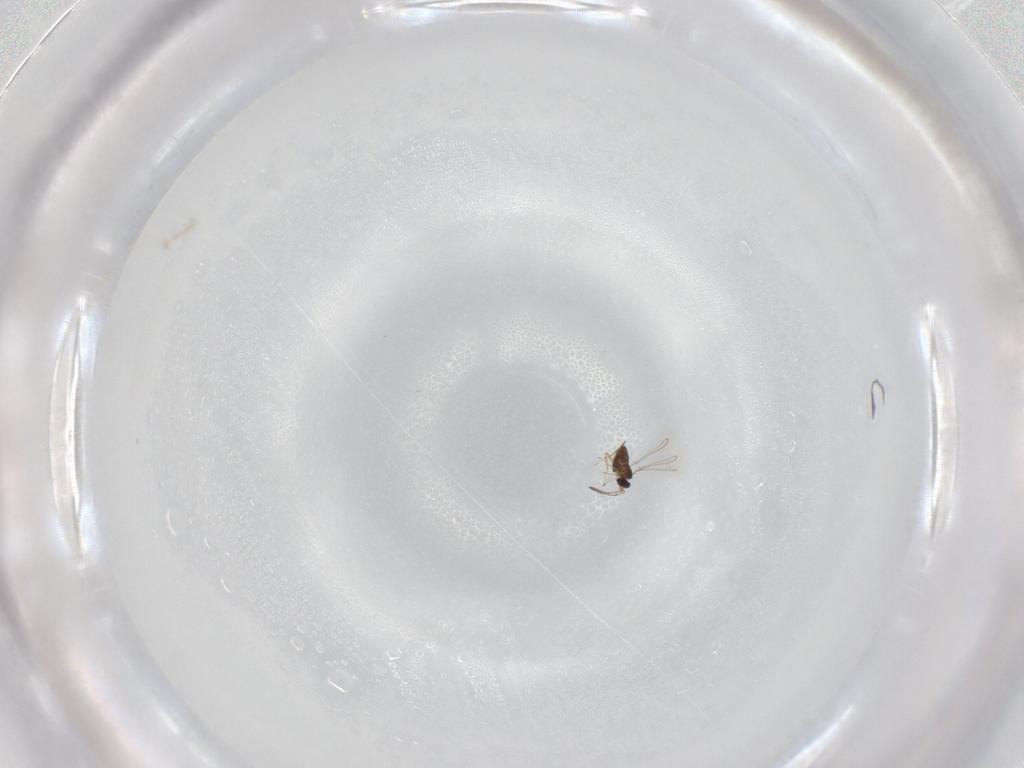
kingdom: Animalia
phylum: Arthropoda
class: Insecta
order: Hymenoptera
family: Mymaridae
